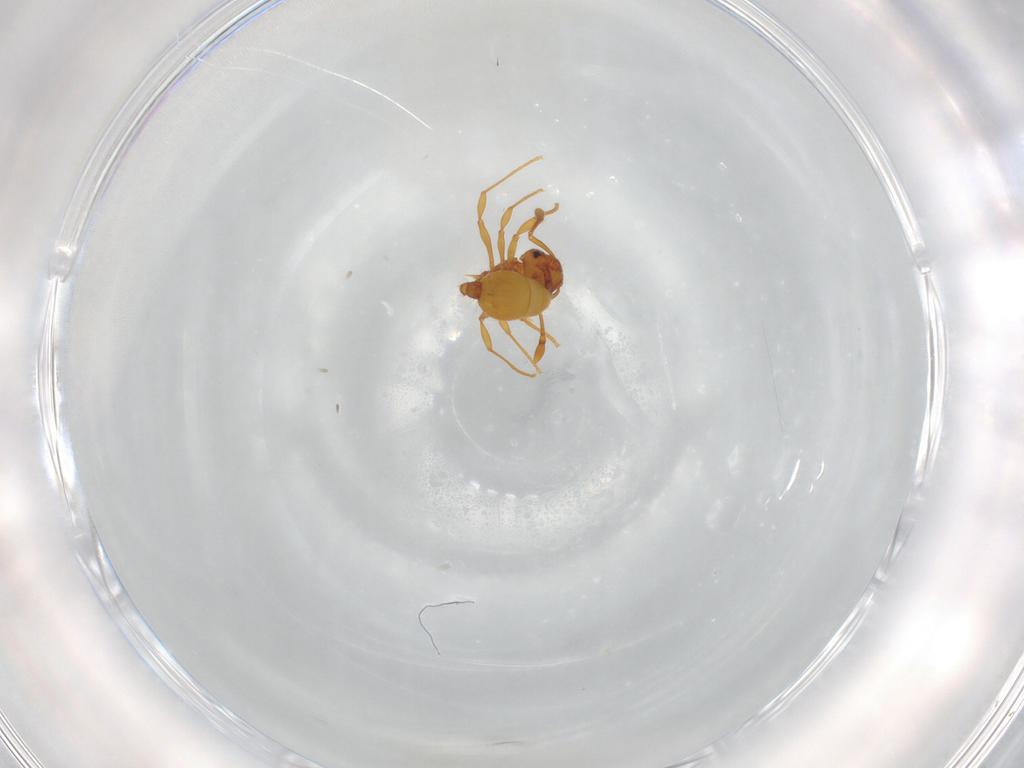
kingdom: Animalia
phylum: Arthropoda
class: Insecta
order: Hymenoptera
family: Formicidae
